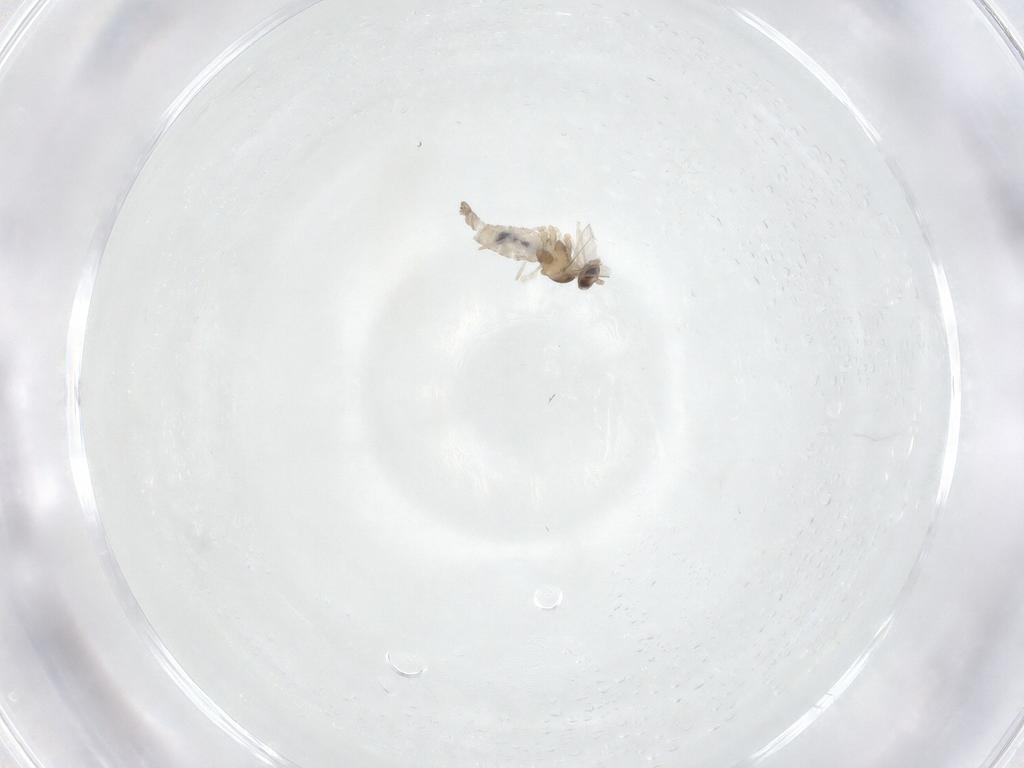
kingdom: Animalia
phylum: Arthropoda
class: Insecta
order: Diptera
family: Cecidomyiidae
